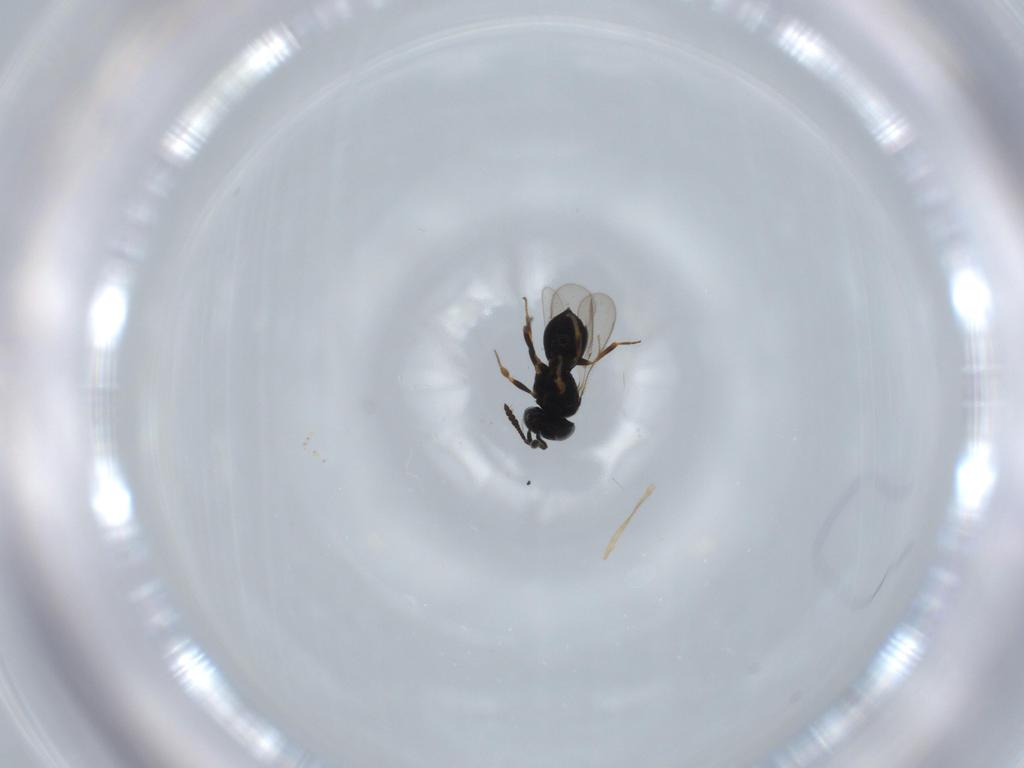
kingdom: Animalia
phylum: Arthropoda
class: Insecta
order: Hymenoptera
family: Scelionidae
